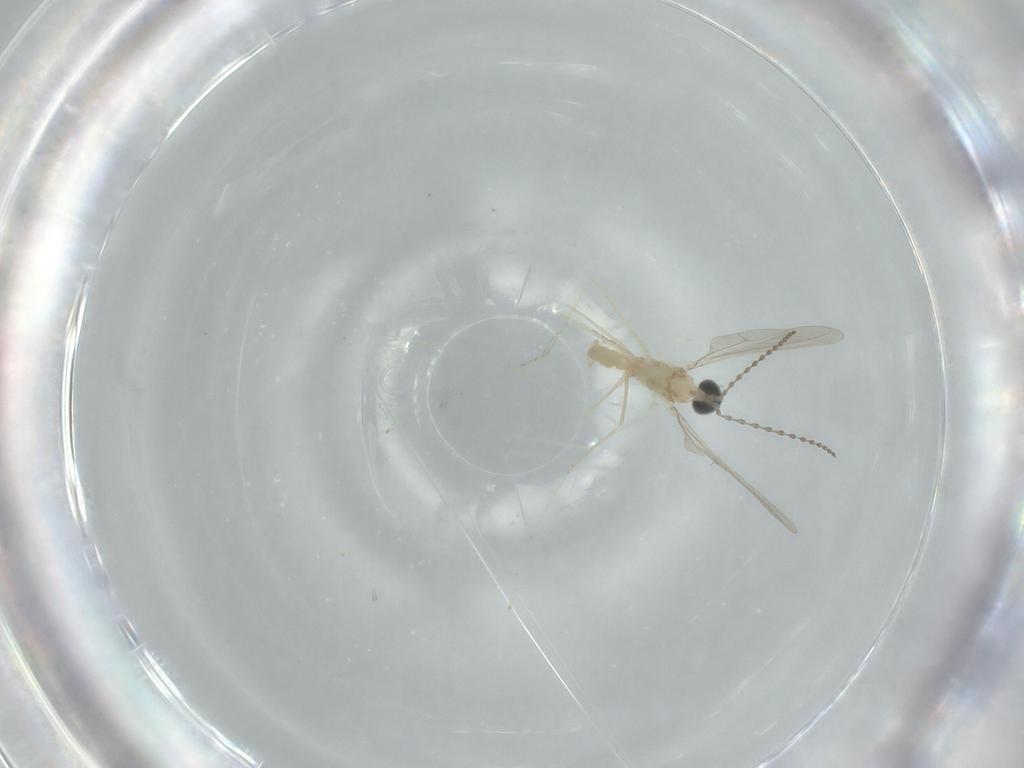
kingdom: Animalia
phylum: Arthropoda
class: Insecta
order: Diptera
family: Cecidomyiidae
